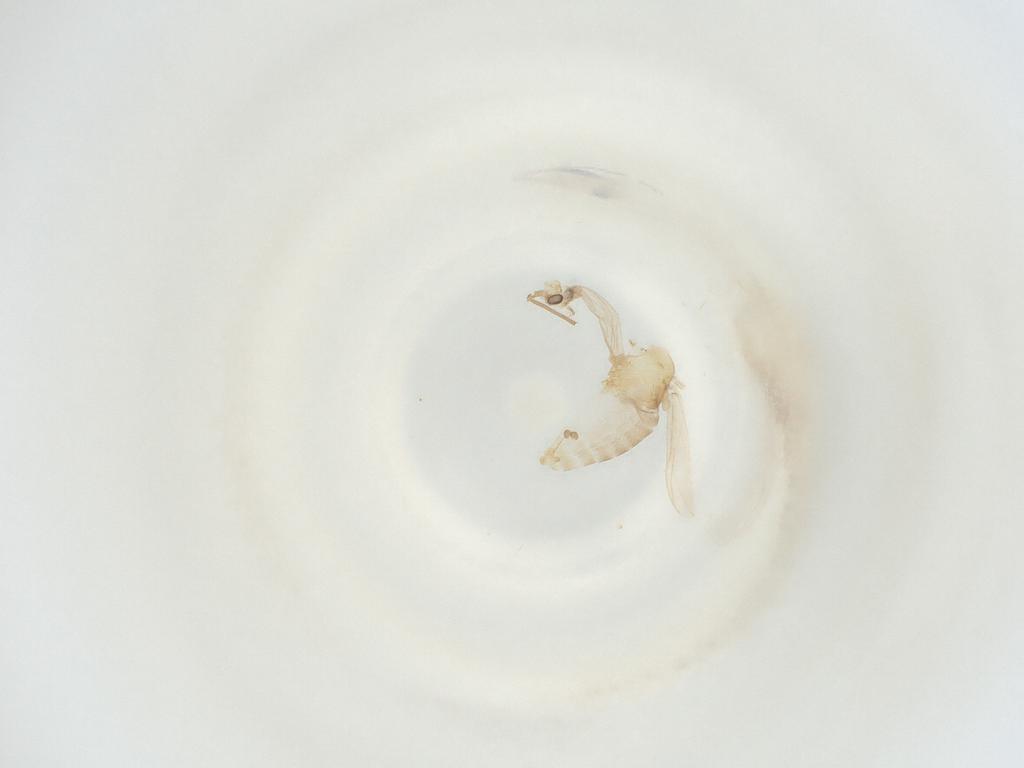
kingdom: Animalia
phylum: Arthropoda
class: Insecta
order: Diptera
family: Chironomidae
